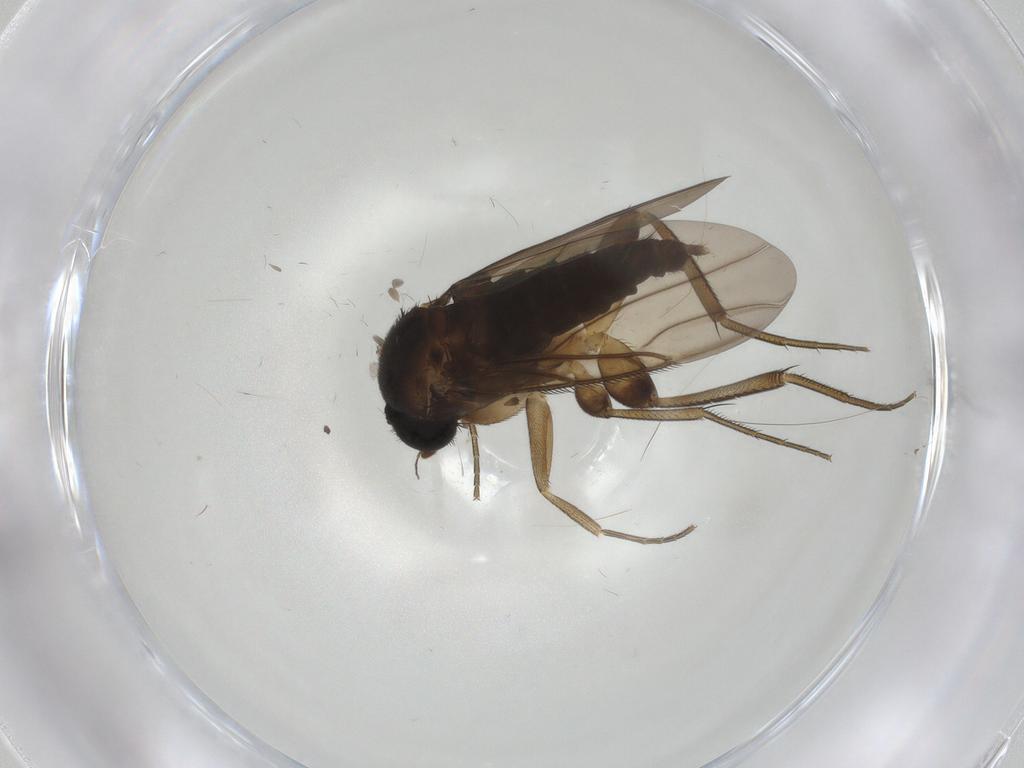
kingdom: Animalia
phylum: Arthropoda
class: Insecta
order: Diptera
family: Phoridae
